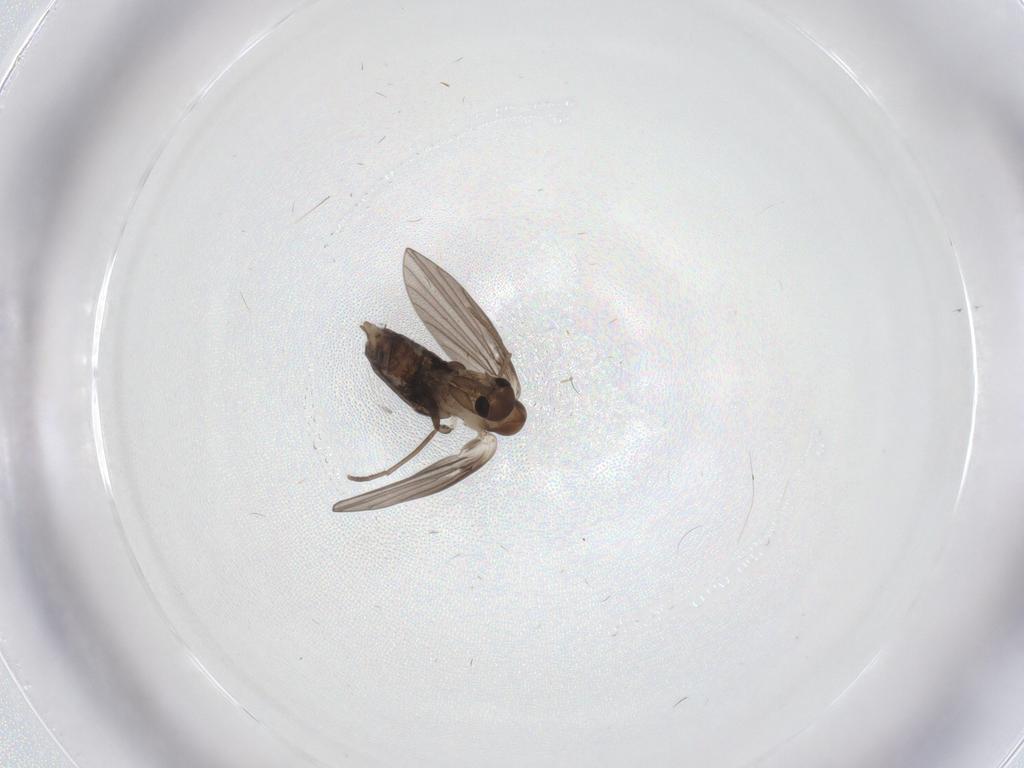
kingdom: Animalia
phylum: Arthropoda
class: Insecta
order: Diptera
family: Psychodidae
